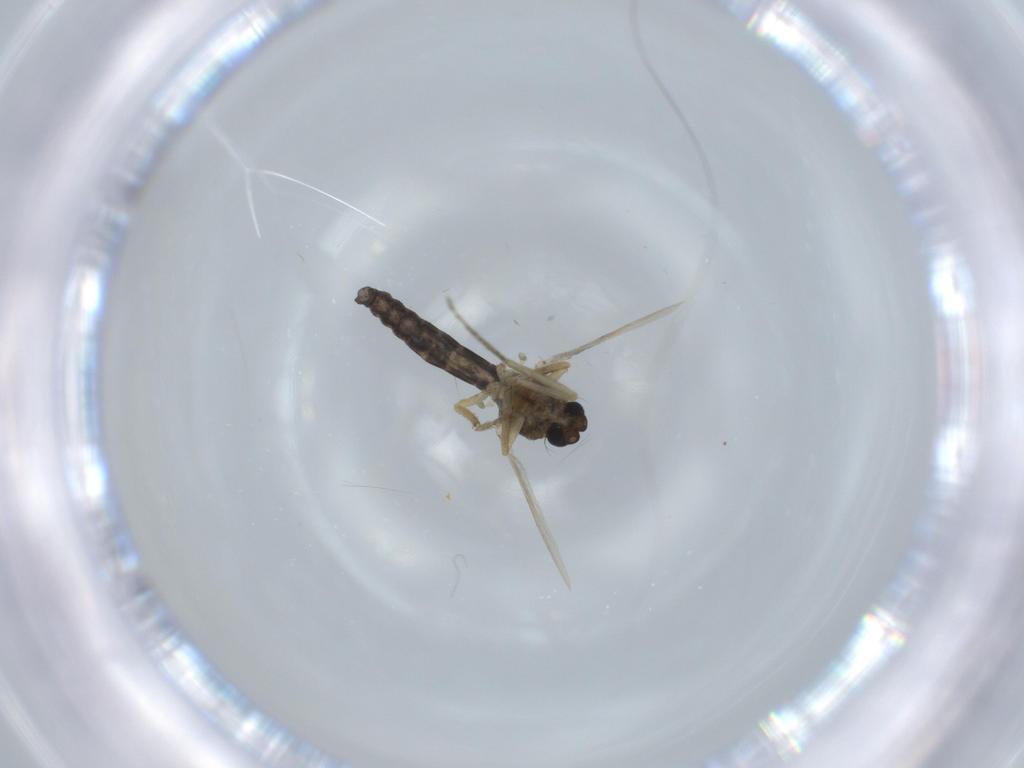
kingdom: Animalia
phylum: Arthropoda
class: Insecta
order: Diptera
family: Ceratopogonidae
